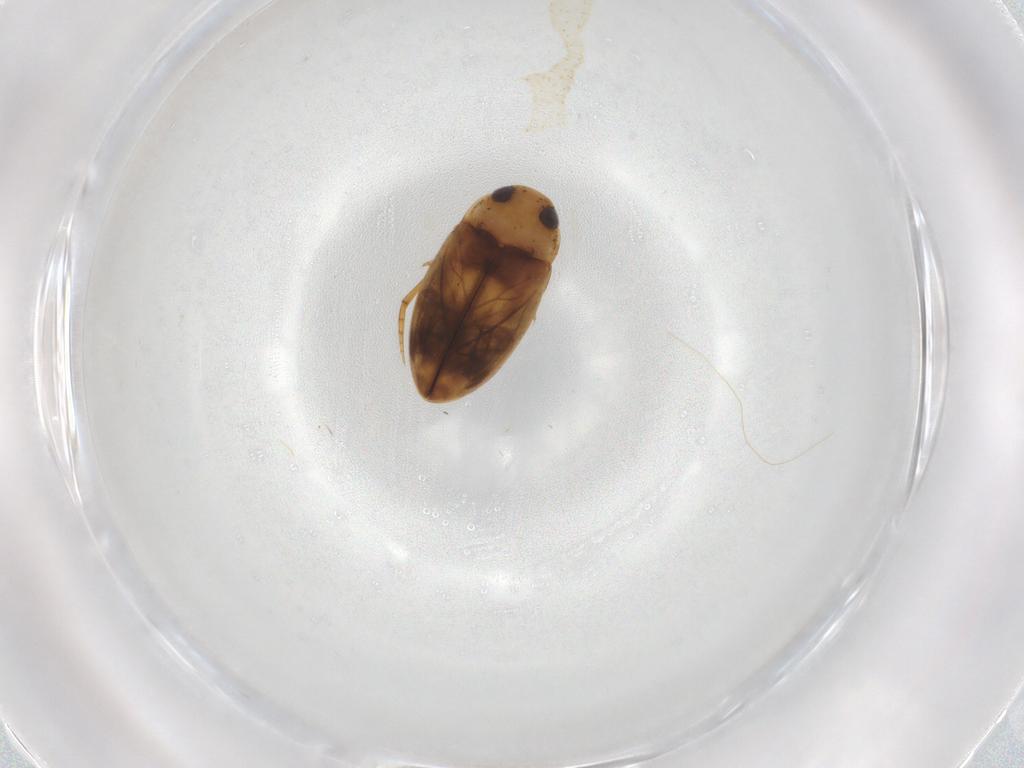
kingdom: Animalia
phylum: Arthropoda
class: Insecta
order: Coleoptera
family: Dytiscidae
